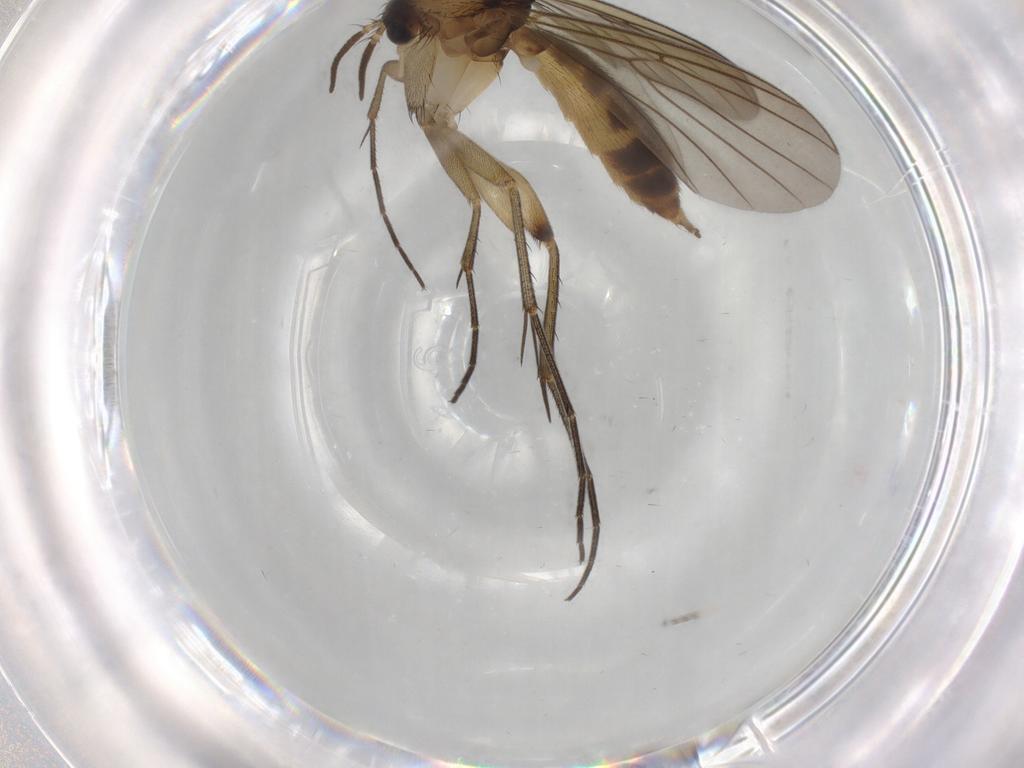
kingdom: Animalia
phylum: Arthropoda
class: Insecta
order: Diptera
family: Mycetophilidae
